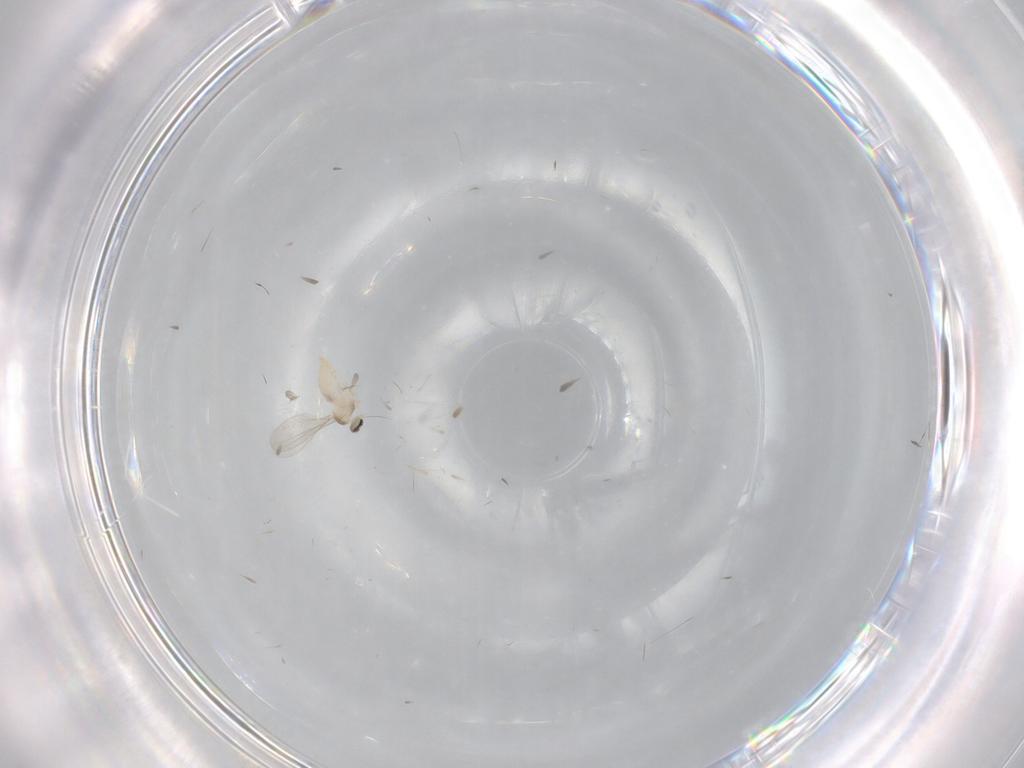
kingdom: Animalia
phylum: Arthropoda
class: Insecta
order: Diptera
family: Cecidomyiidae
